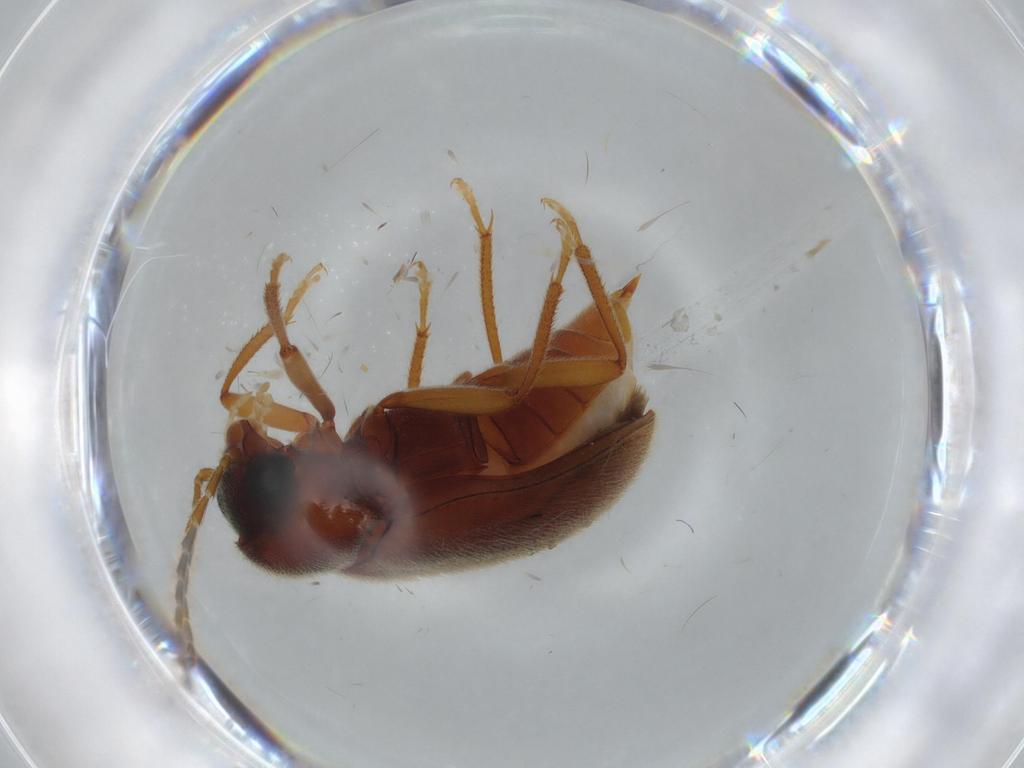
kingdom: Animalia
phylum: Arthropoda
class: Insecta
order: Coleoptera
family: Ptilodactylidae
